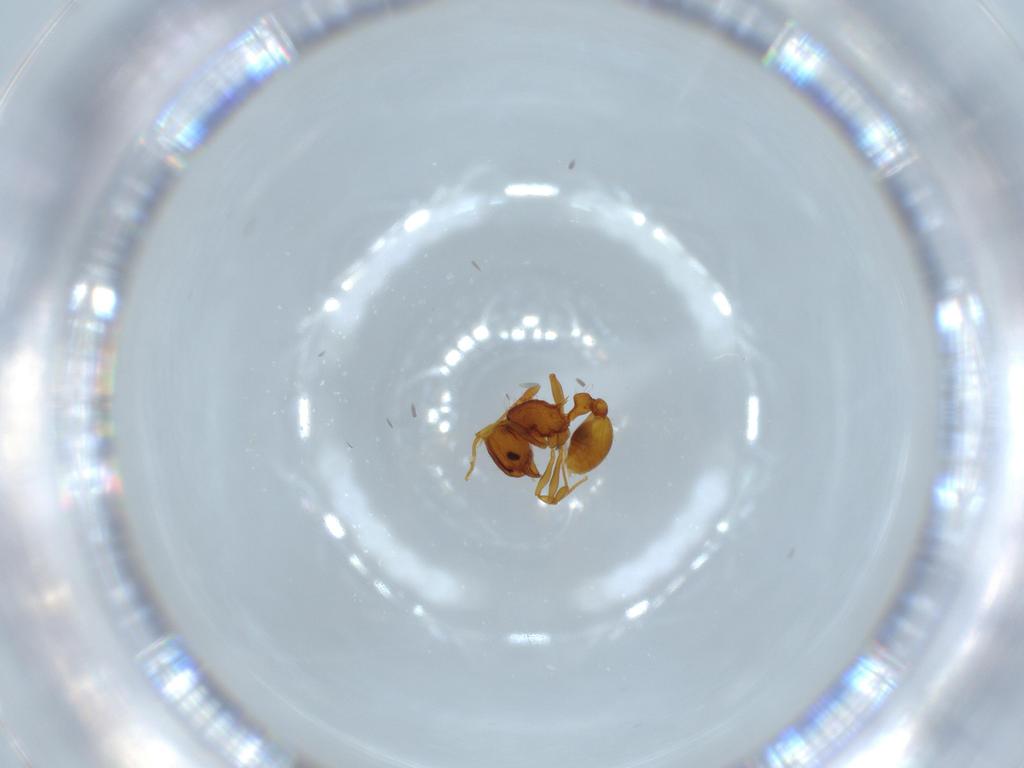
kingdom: Animalia
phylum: Arthropoda
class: Insecta
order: Hymenoptera
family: Formicidae
